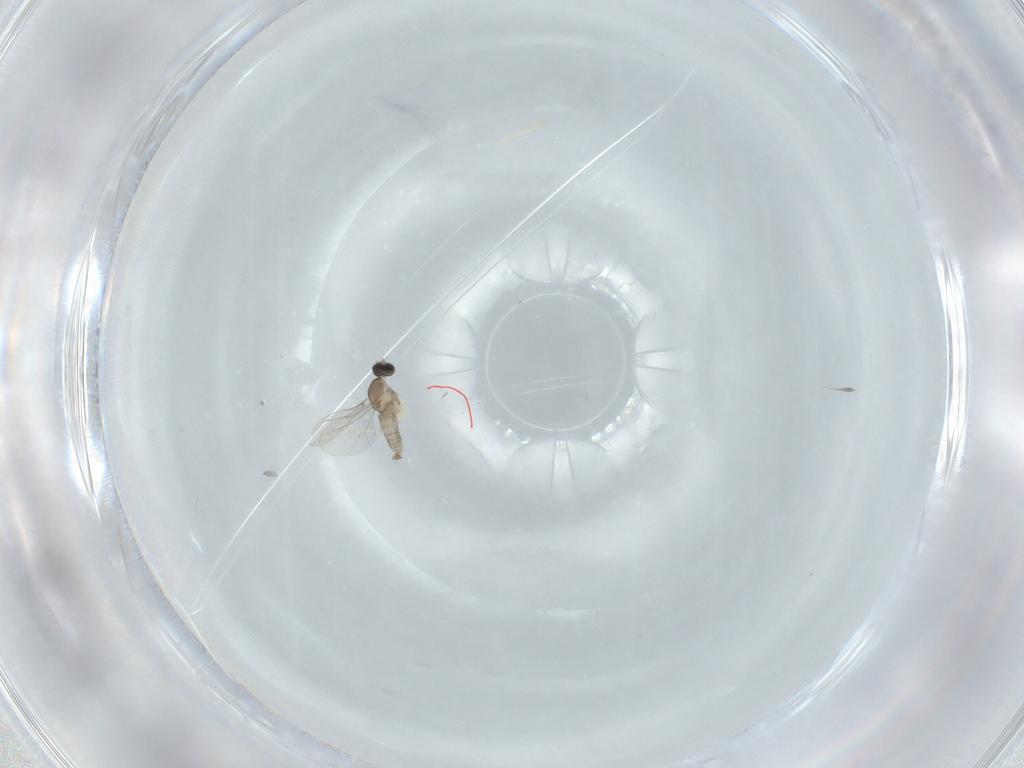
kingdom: Animalia
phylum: Arthropoda
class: Insecta
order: Diptera
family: Cecidomyiidae
